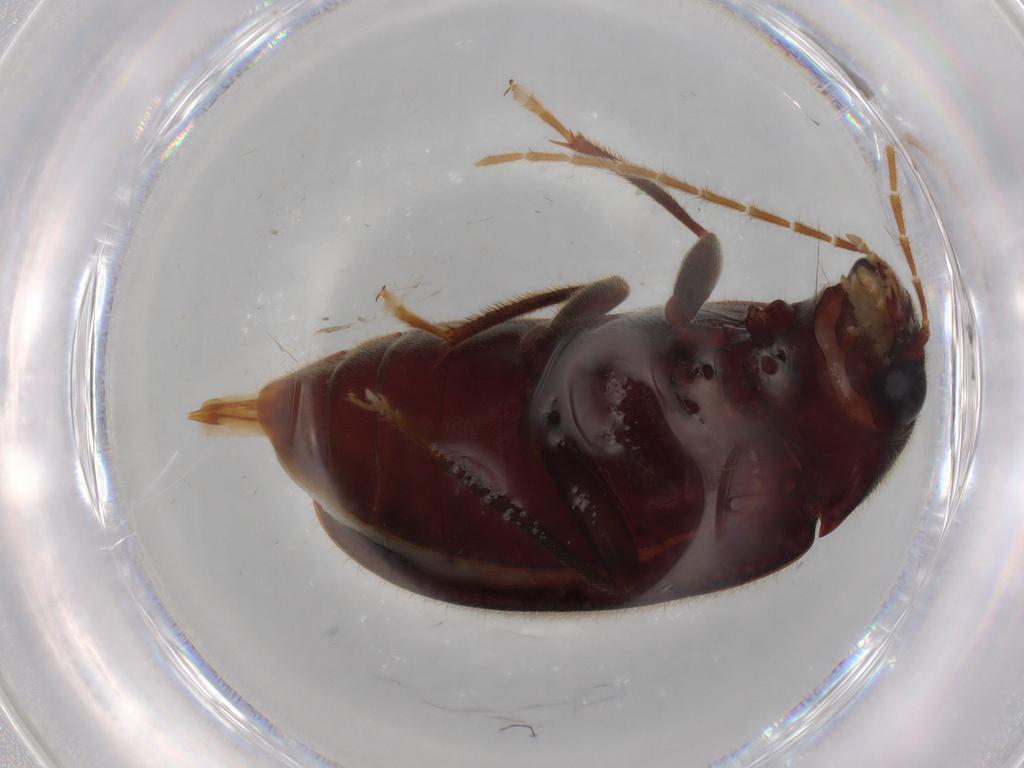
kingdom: Animalia
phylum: Arthropoda
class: Insecta
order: Coleoptera
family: Ptilodactylidae
